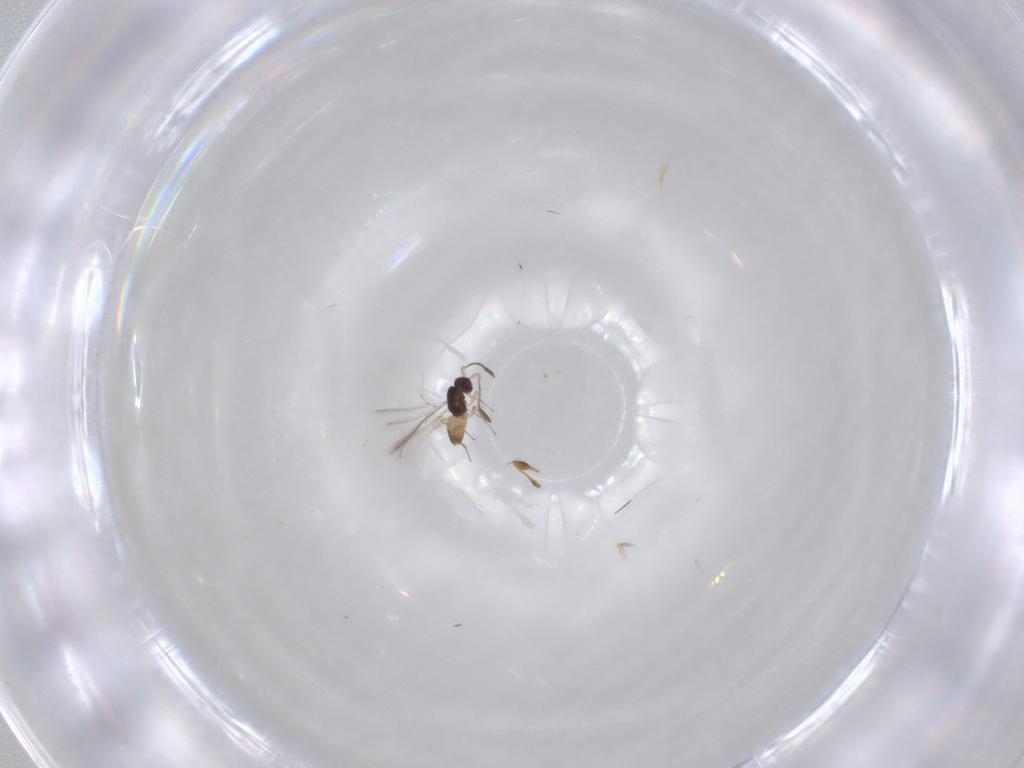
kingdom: Animalia
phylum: Arthropoda
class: Insecta
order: Hymenoptera
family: Mymaridae
